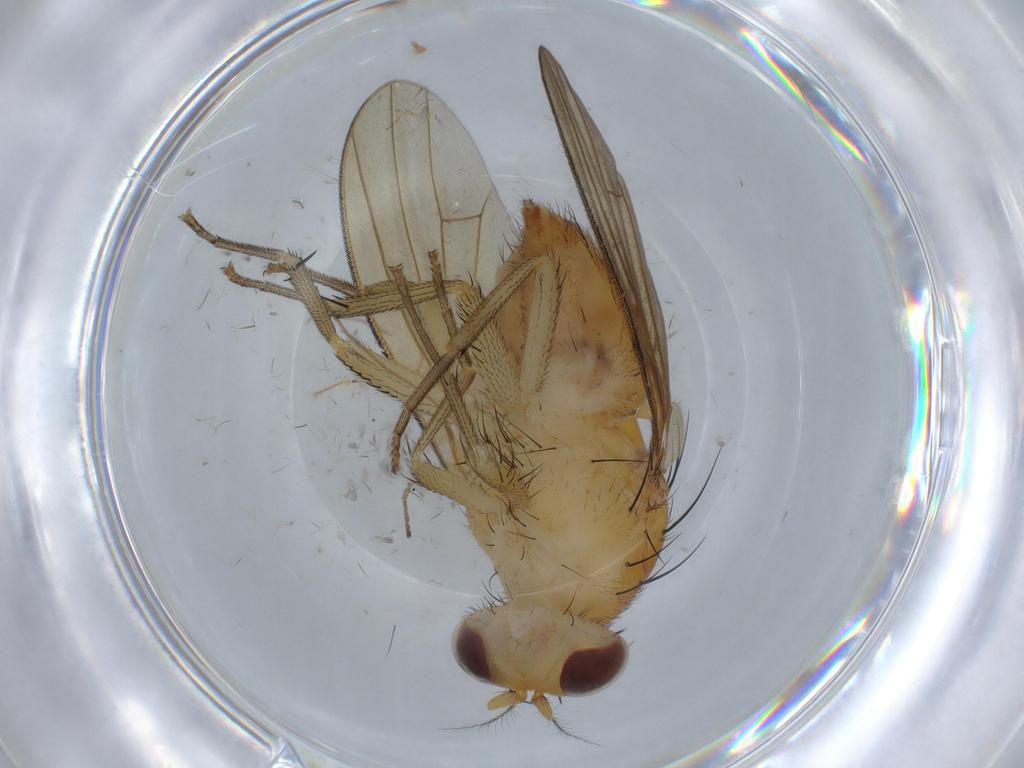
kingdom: Animalia
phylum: Arthropoda
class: Insecta
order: Diptera
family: Chironomidae
